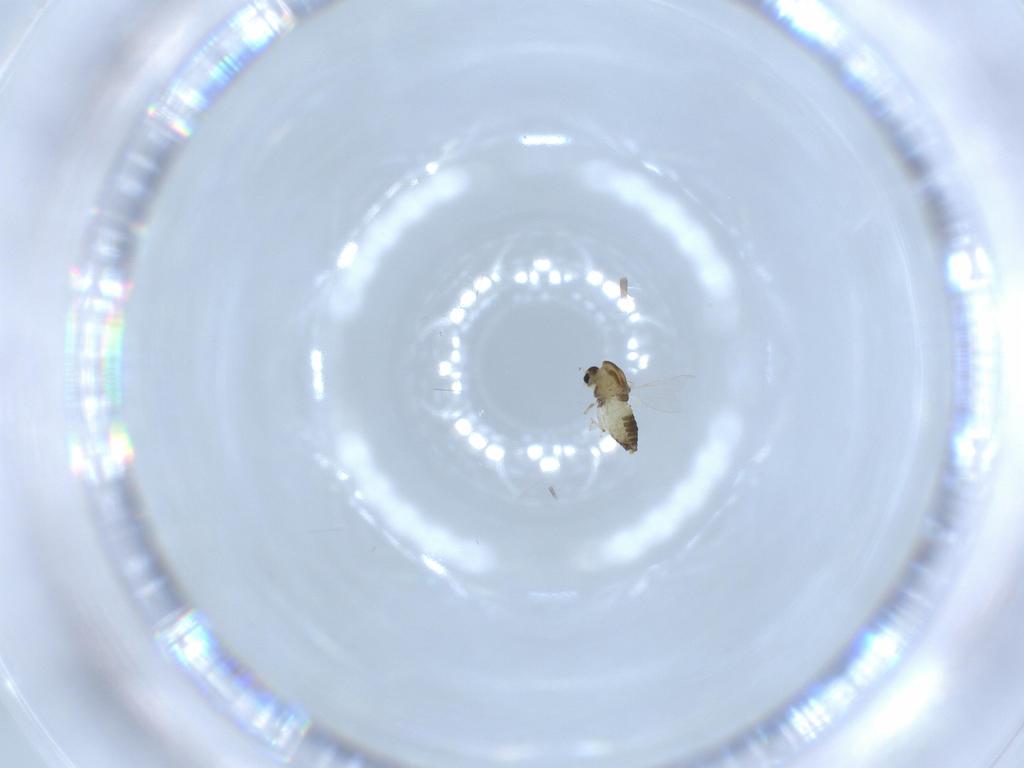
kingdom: Animalia
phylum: Arthropoda
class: Insecta
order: Diptera
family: Chironomidae
